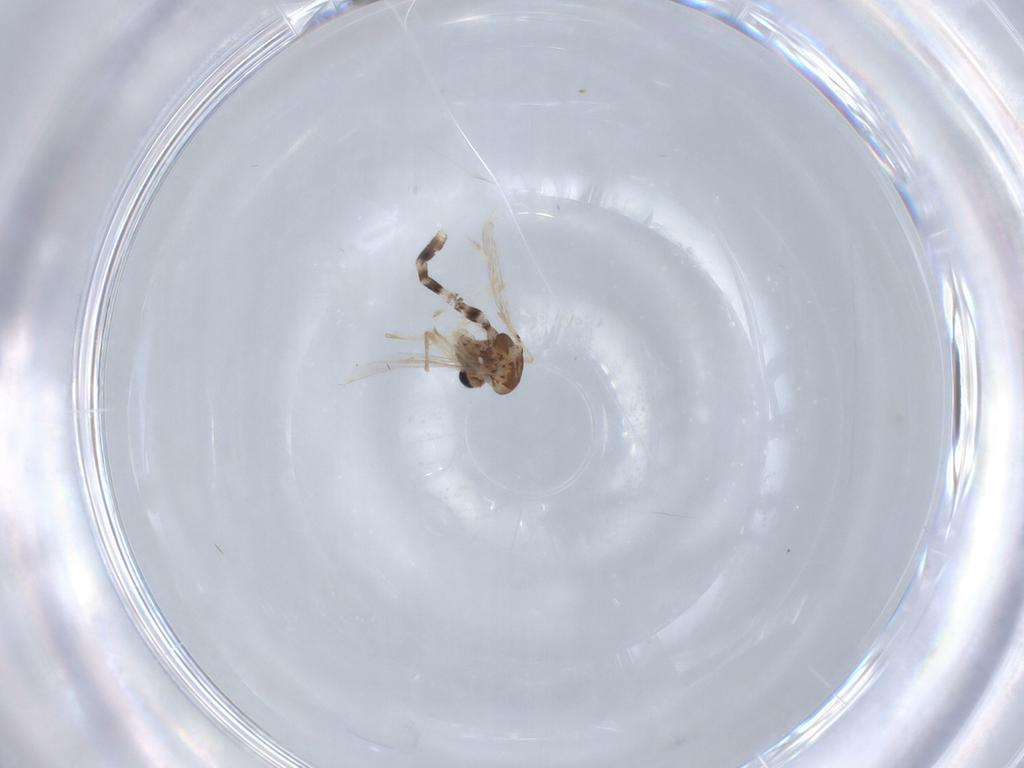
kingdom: Animalia
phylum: Arthropoda
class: Insecta
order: Diptera
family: Chironomidae
